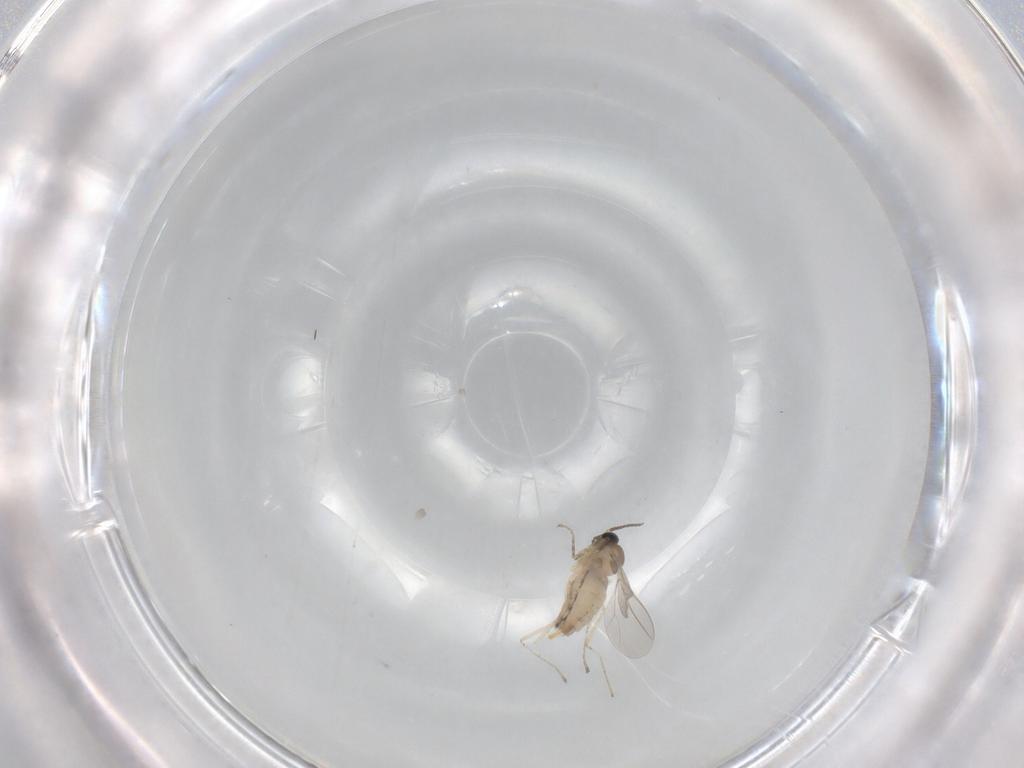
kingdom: Animalia
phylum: Arthropoda
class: Insecta
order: Diptera
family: Cecidomyiidae
